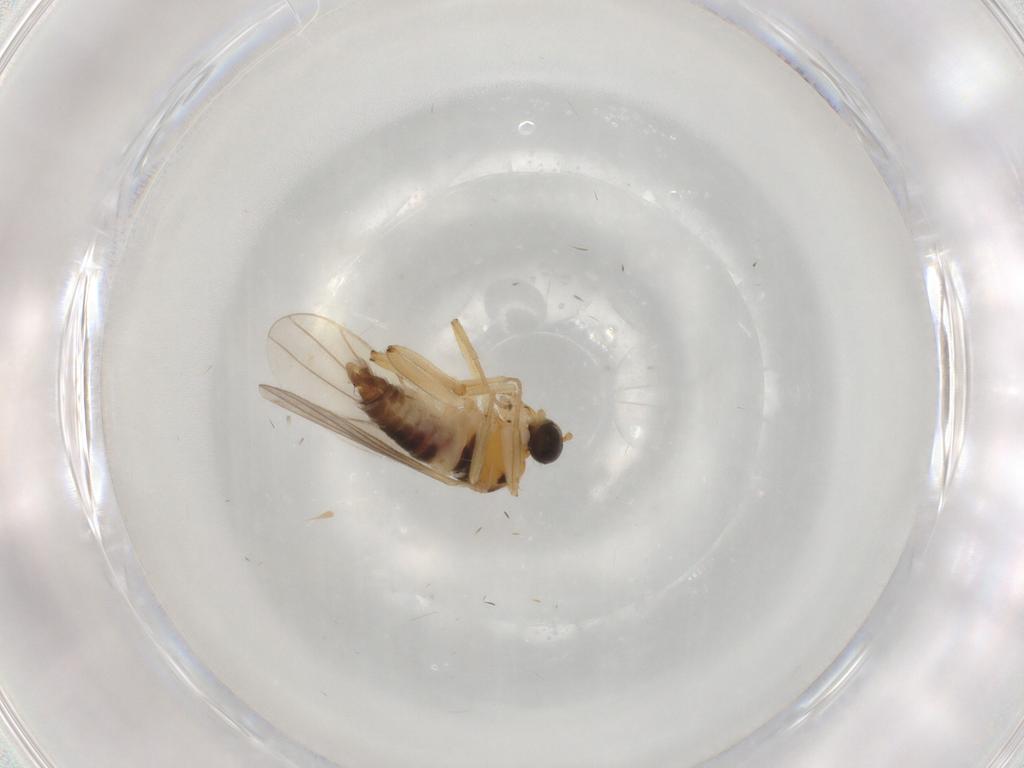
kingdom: Animalia
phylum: Arthropoda
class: Insecta
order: Diptera
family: Hybotidae
